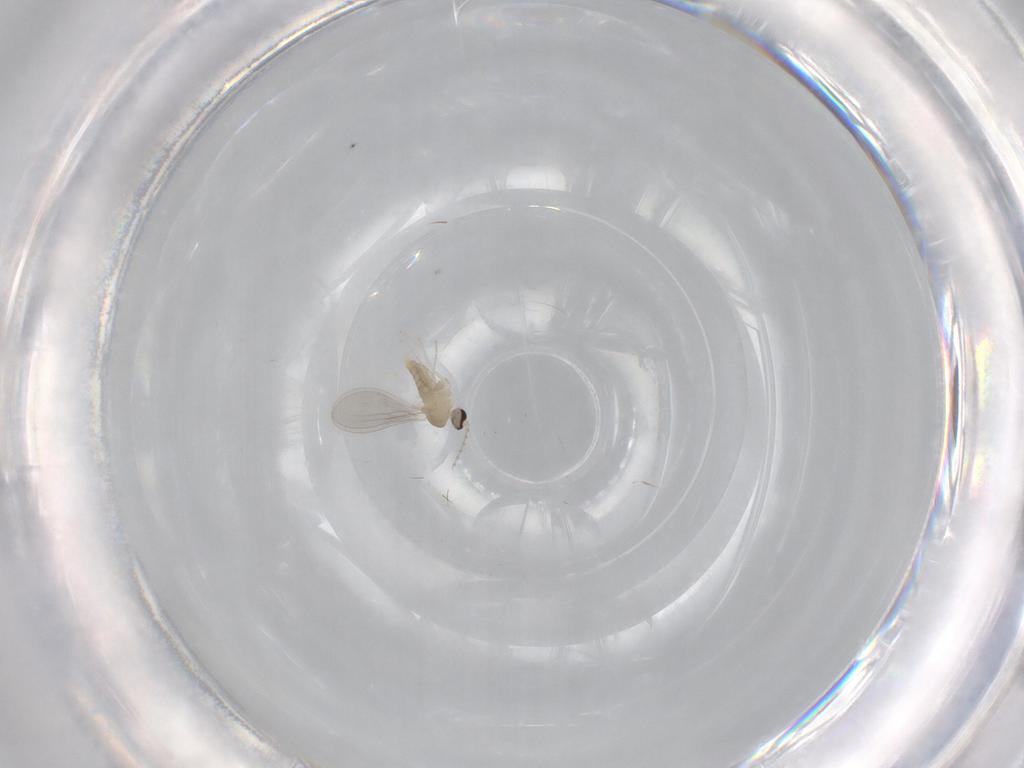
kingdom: Animalia
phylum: Arthropoda
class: Insecta
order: Diptera
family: Cecidomyiidae
